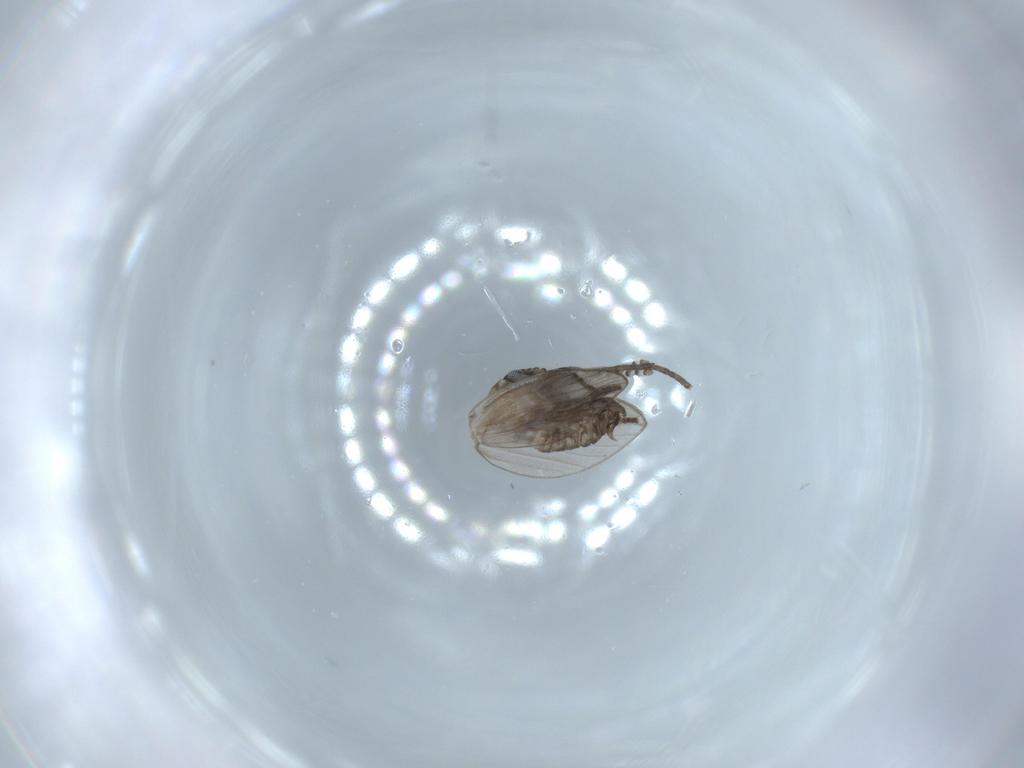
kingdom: Animalia
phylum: Arthropoda
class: Insecta
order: Diptera
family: Psychodidae
